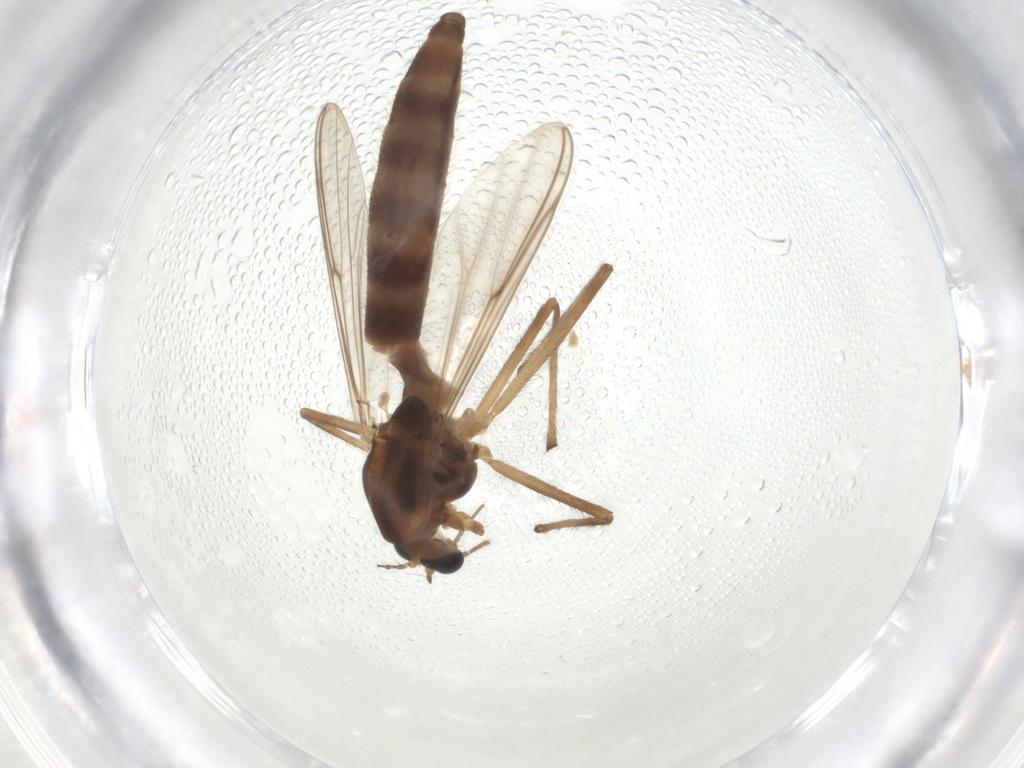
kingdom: Animalia
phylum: Arthropoda
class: Insecta
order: Diptera
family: Chironomidae
